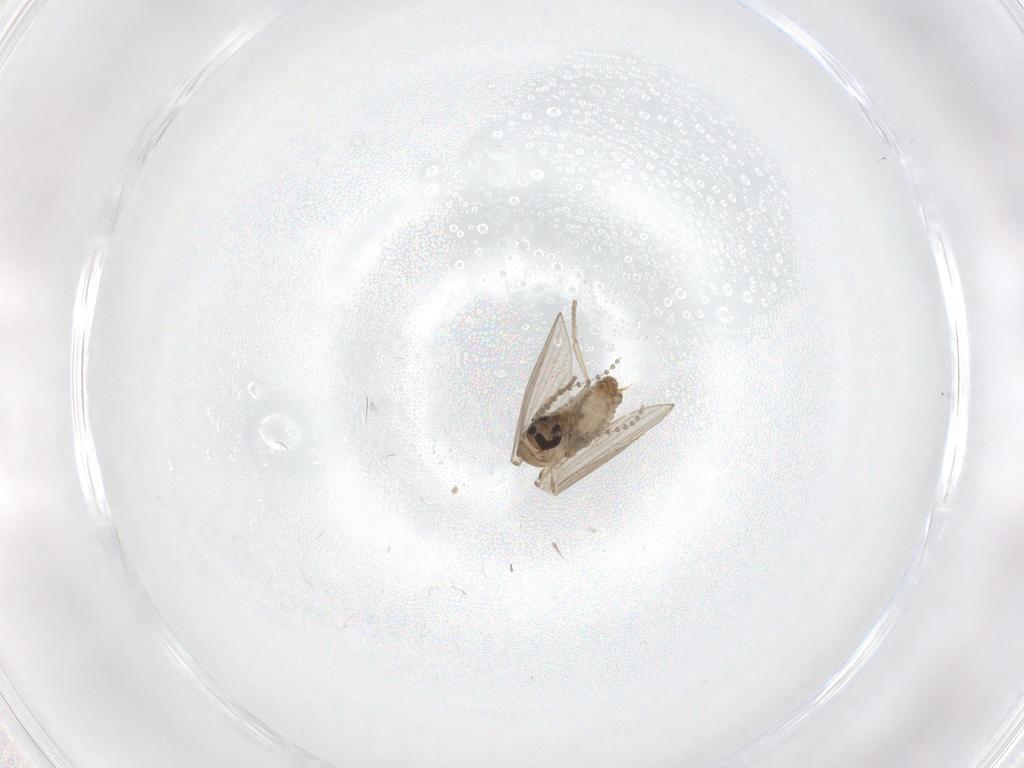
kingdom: Animalia
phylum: Arthropoda
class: Insecta
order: Diptera
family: Psychodidae
